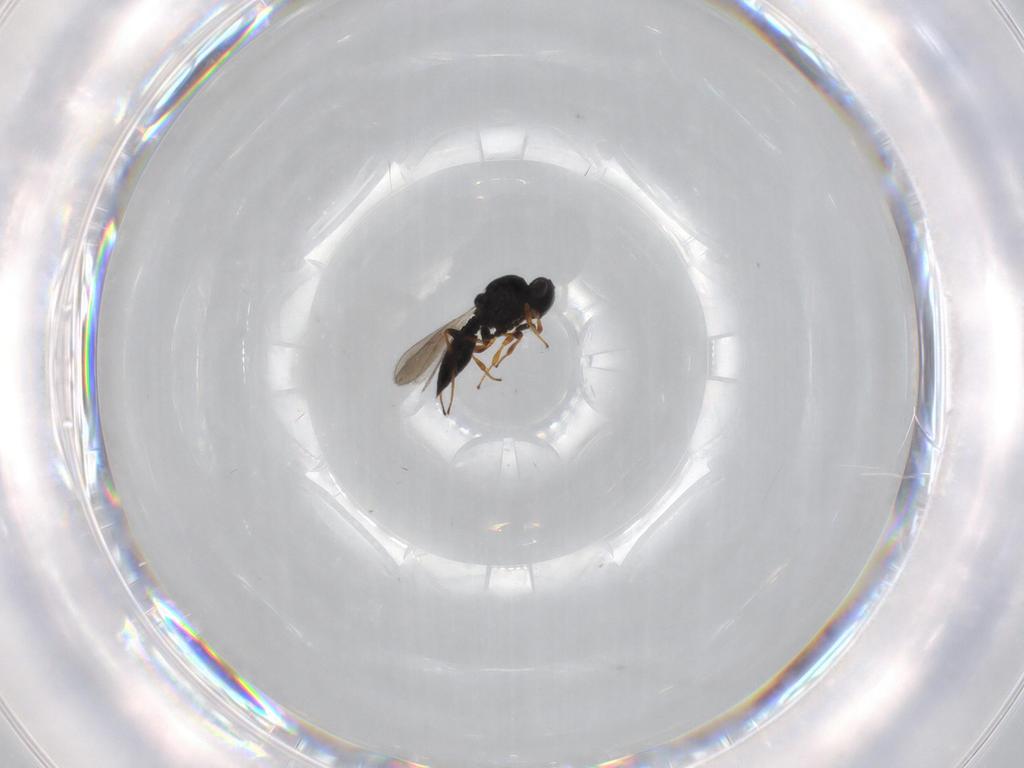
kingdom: Animalia
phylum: Arthropoda
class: Insecta
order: Hymenoptera
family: Platygastridae
